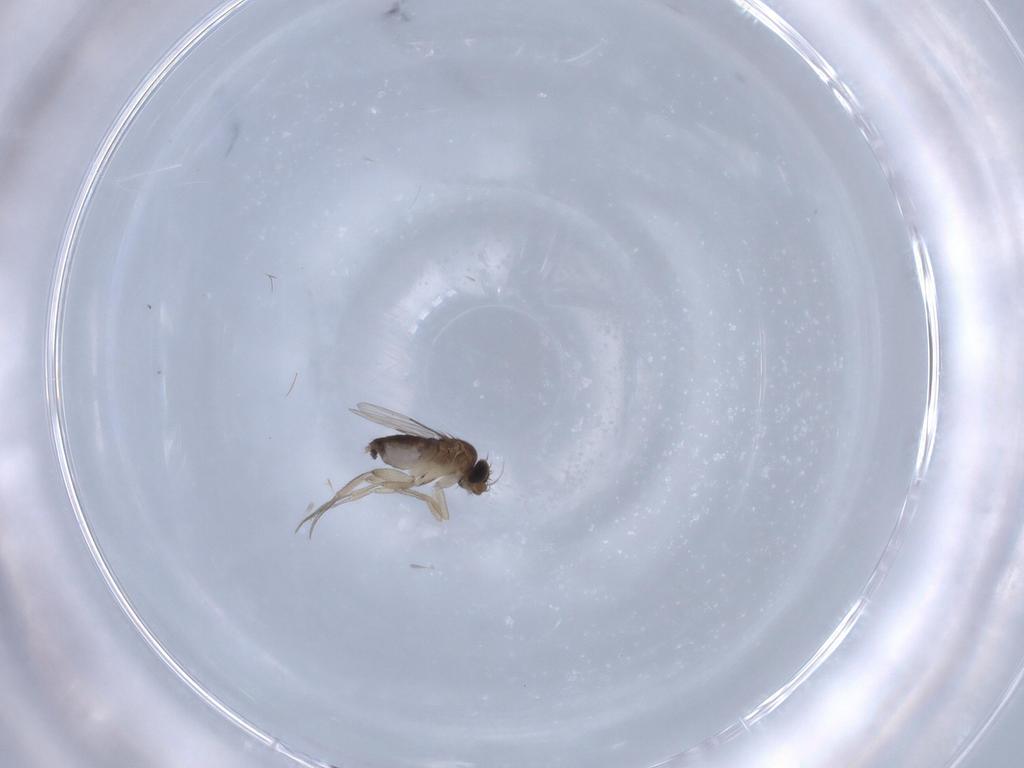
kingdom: Animalia
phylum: Arthropoda
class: Insecta
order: Diptera
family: Phoridae
